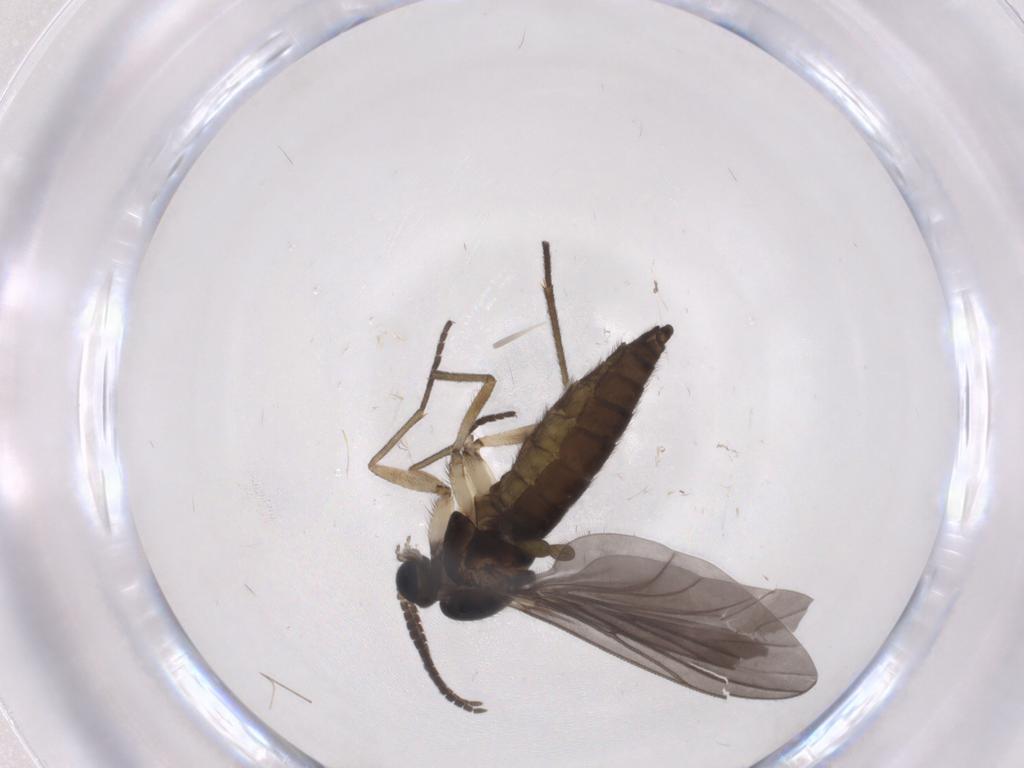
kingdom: Animalia
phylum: Arthropoda
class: Insecta
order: Diptera
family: Sciaridae
